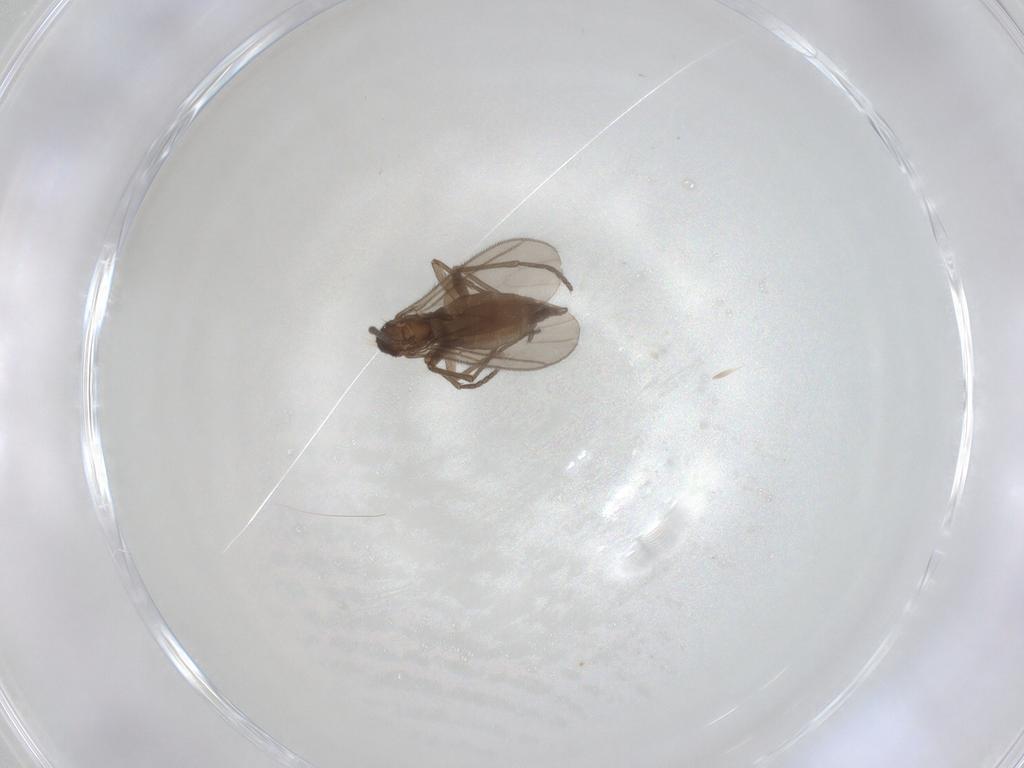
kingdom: Animalia
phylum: Arthropoda
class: Insecta
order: Diptera
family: Sciaridae
